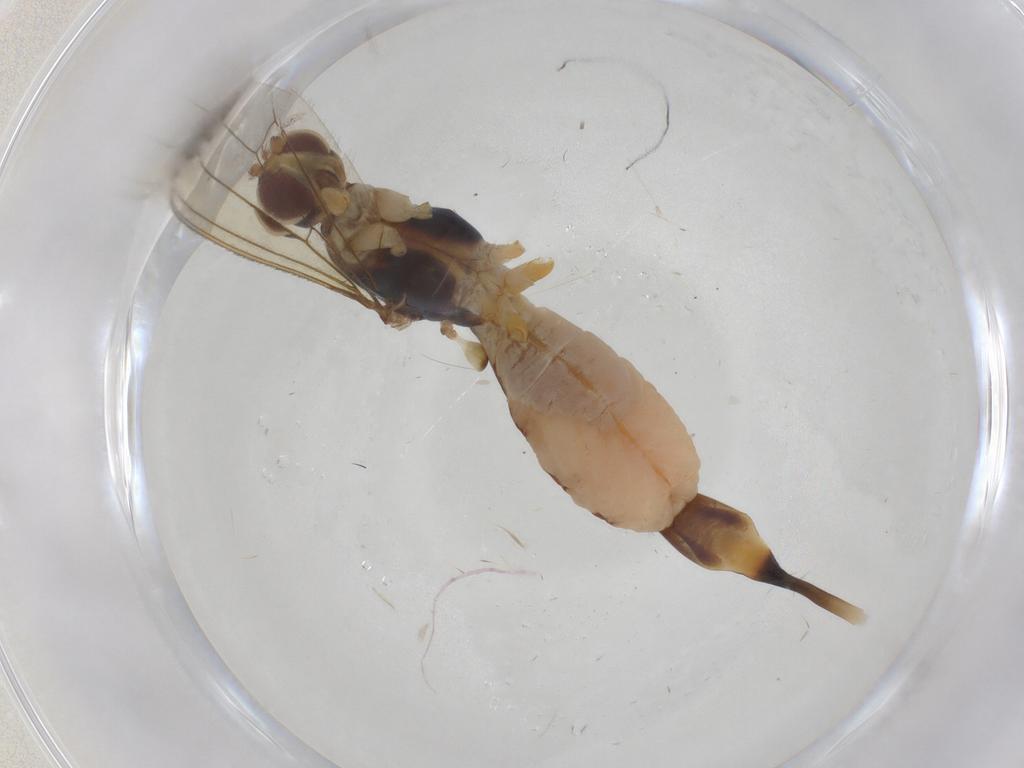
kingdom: Animalia
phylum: Arthropoda
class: Insecta
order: Diptera
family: Micropezidae
